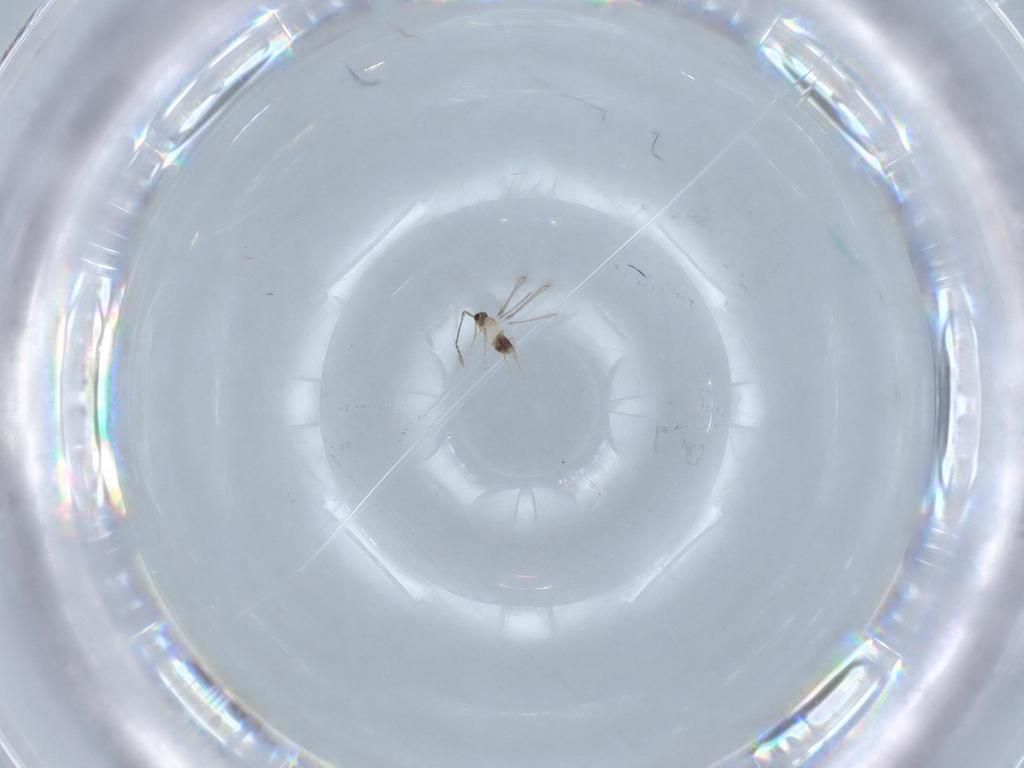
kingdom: Animalia
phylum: Arthropoda
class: Insecta
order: Hymenoptera
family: Mymaridae
